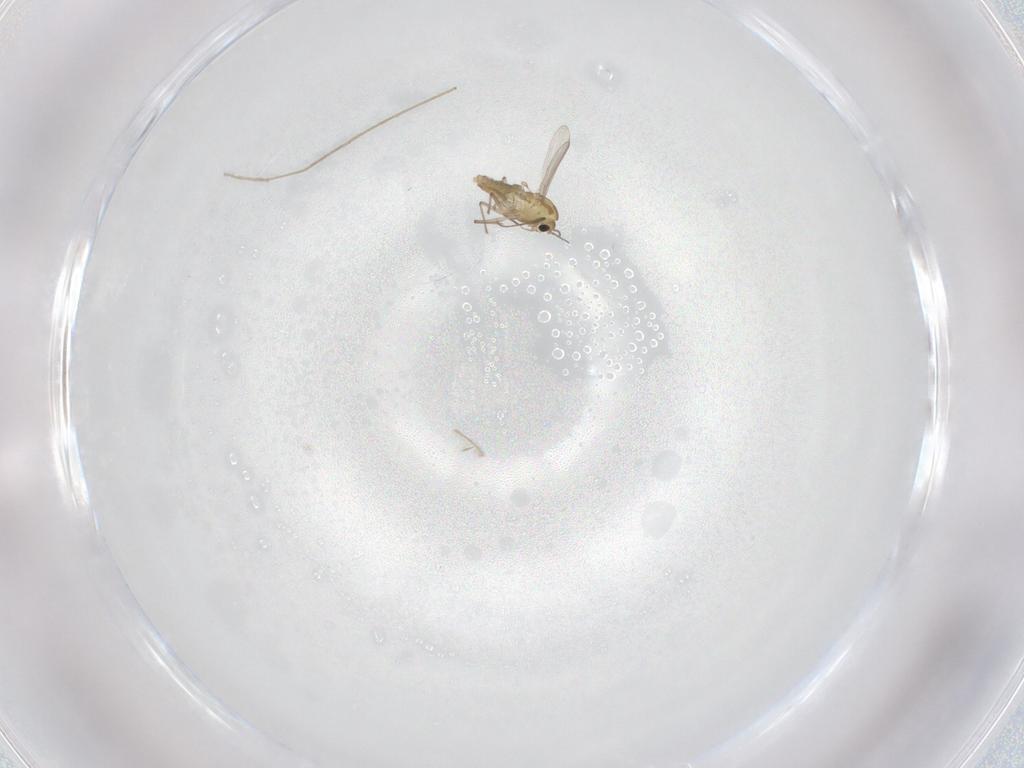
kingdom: Animalia
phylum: Arthropoda
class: Insecta
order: Diptera
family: Chironomidae
